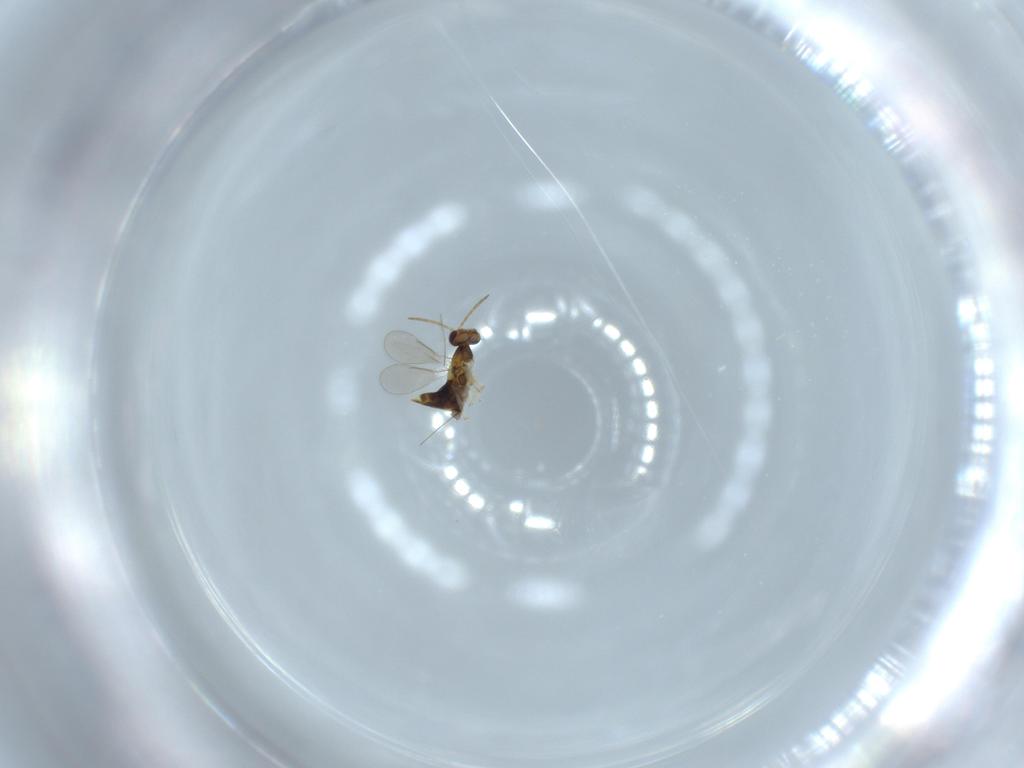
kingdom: Animalia
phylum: Arthropoda
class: Insecta
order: Hymenoptera
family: Aphelinidae
